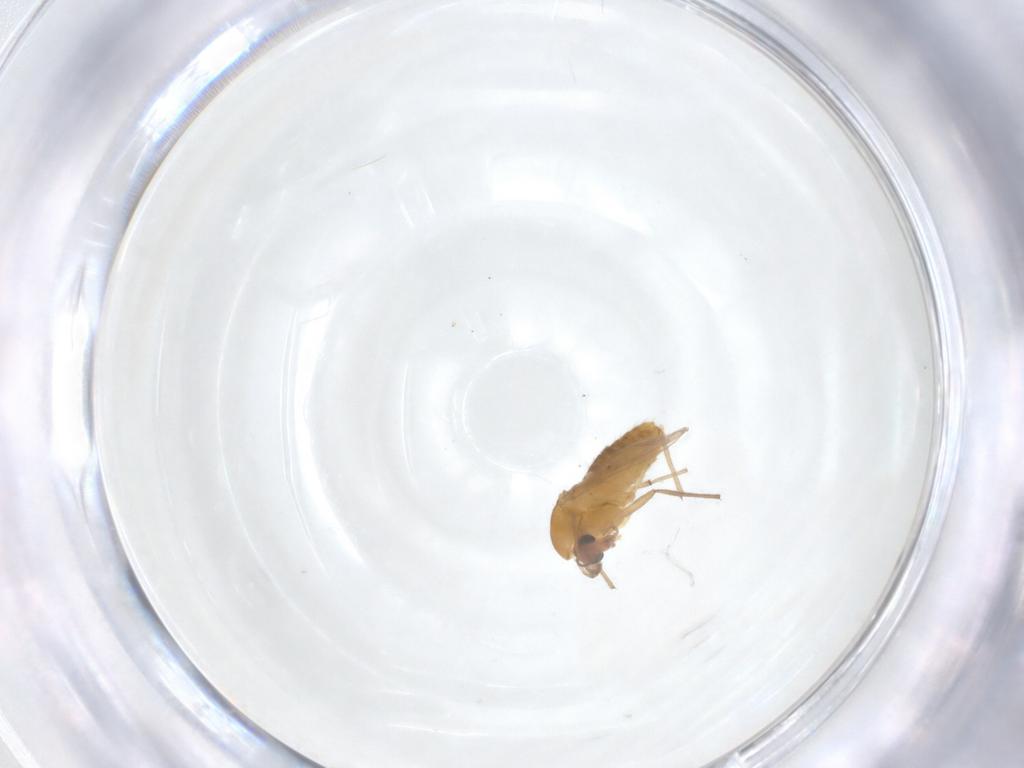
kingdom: Animalia
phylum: Arthropoda
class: Insecta
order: Diptera
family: Chironomidae
